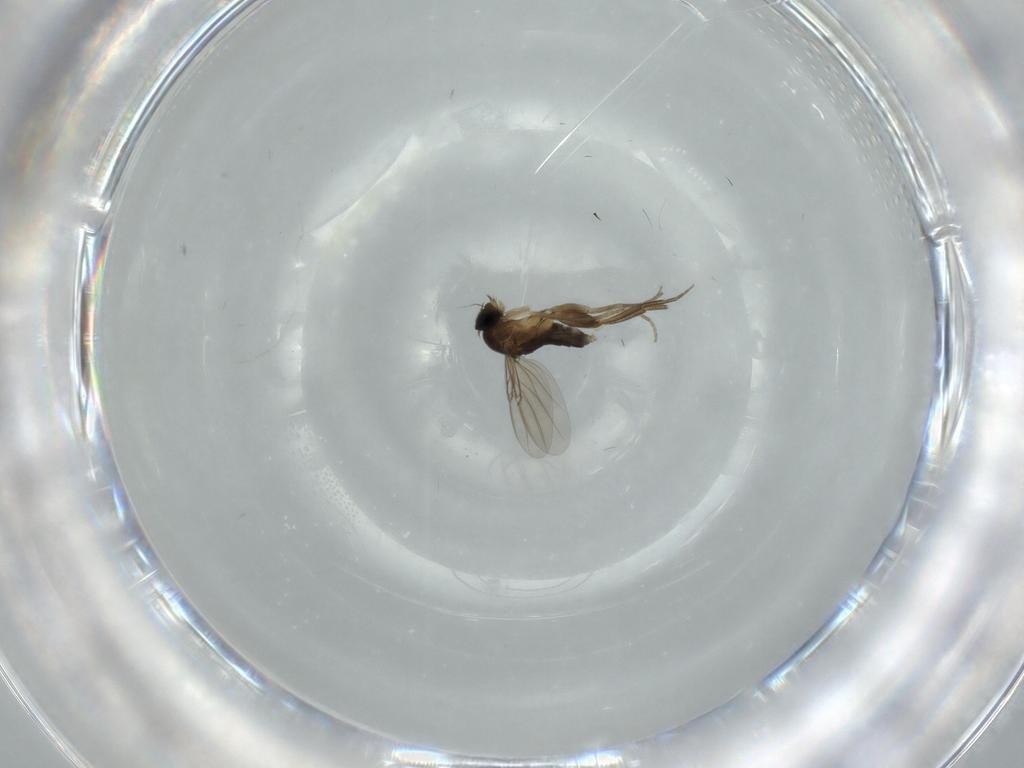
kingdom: Animalia
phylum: Arthropoda
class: Insecta
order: Diptera
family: Phoridae
